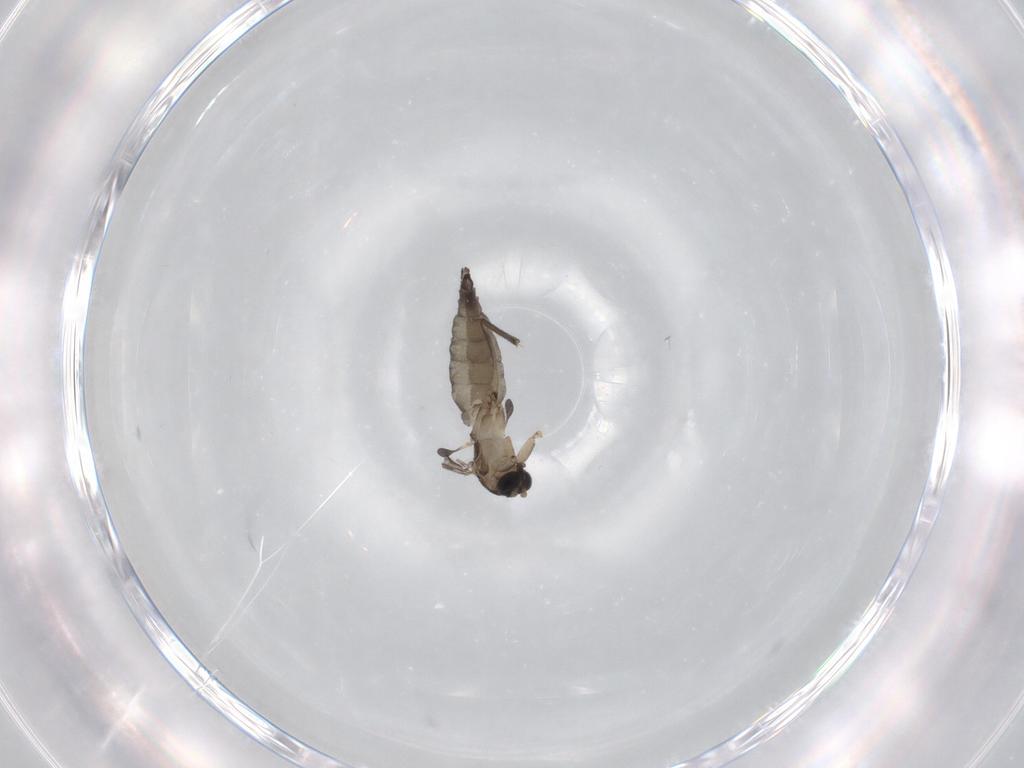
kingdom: Animalia
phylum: Arthropoda
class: Insecta
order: Diptera
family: Sciaridae
